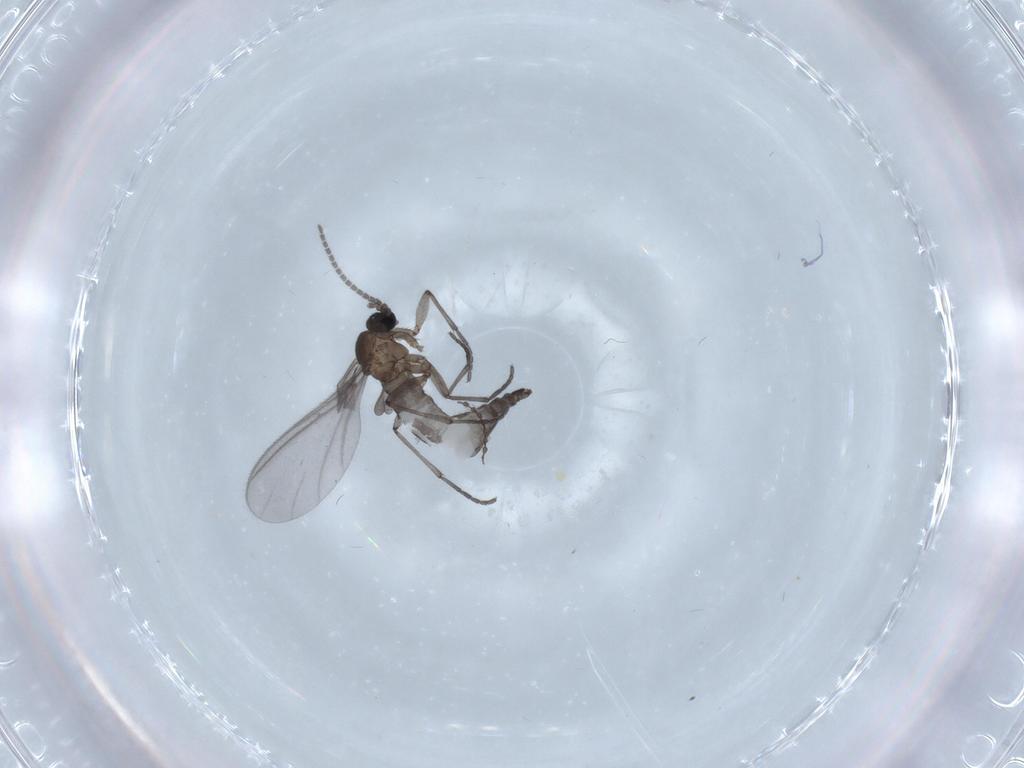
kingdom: Animalia
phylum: Arthropoda
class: Insecta
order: Diptera
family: Sciaridae
